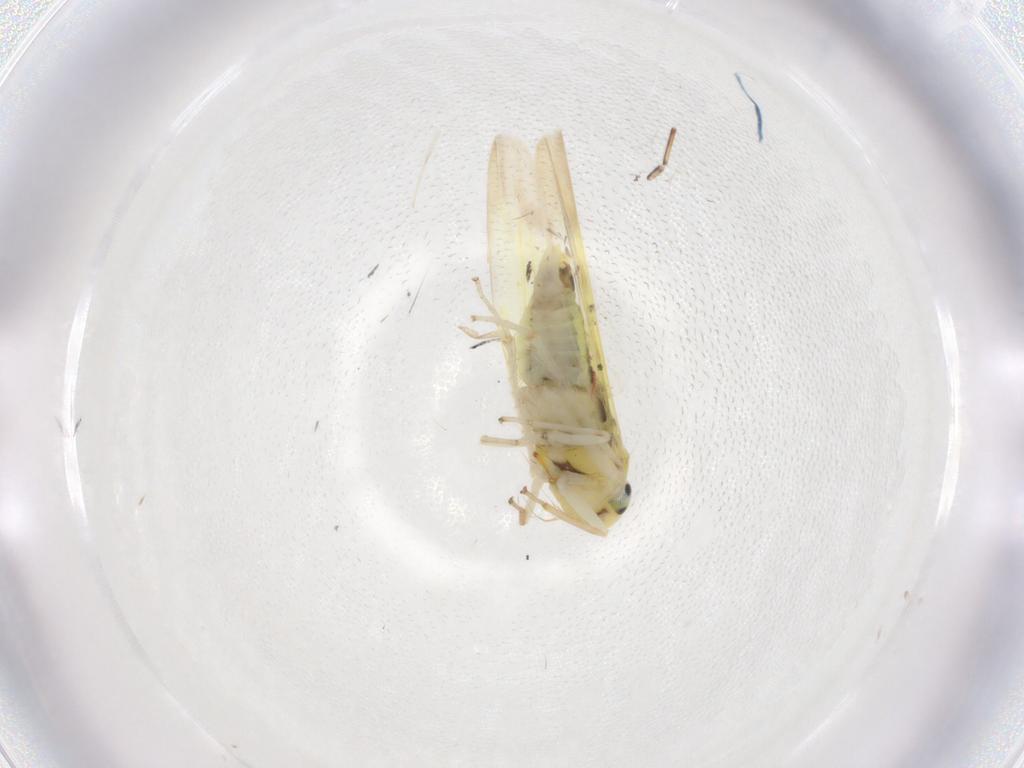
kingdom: Animalia
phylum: Arthropoda
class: Insecta
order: Hemiptera
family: Cicadellidae
